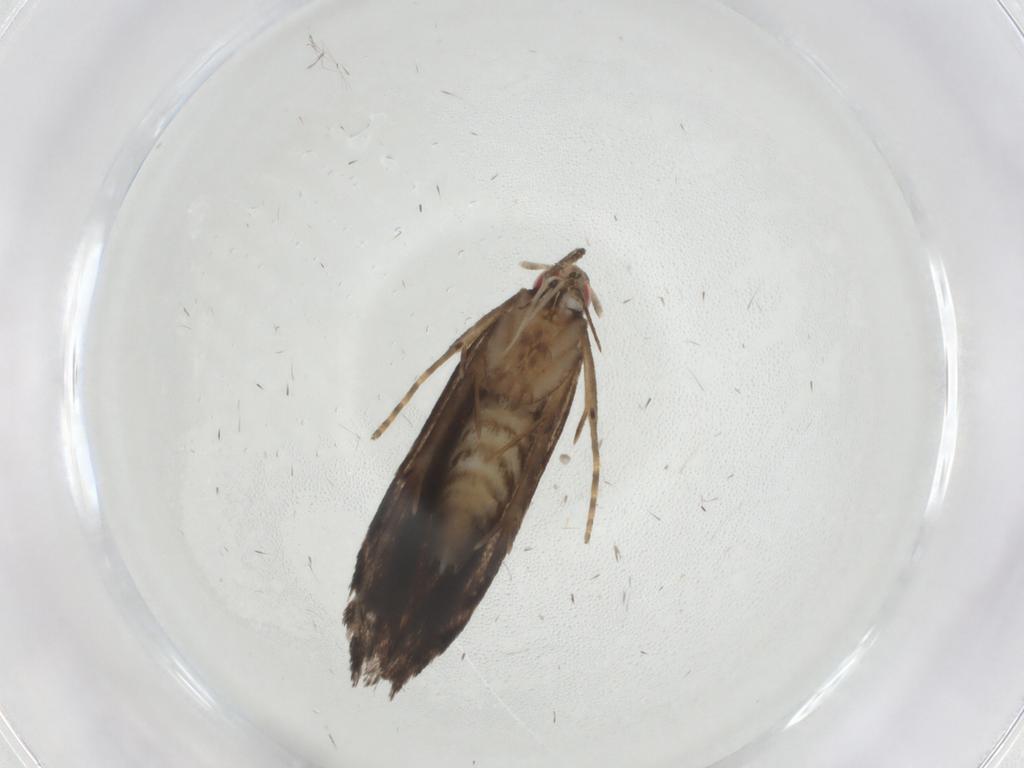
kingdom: Animalia
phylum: Arthropoda
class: Insecta
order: Lepidoptera
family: Gelechiidae
